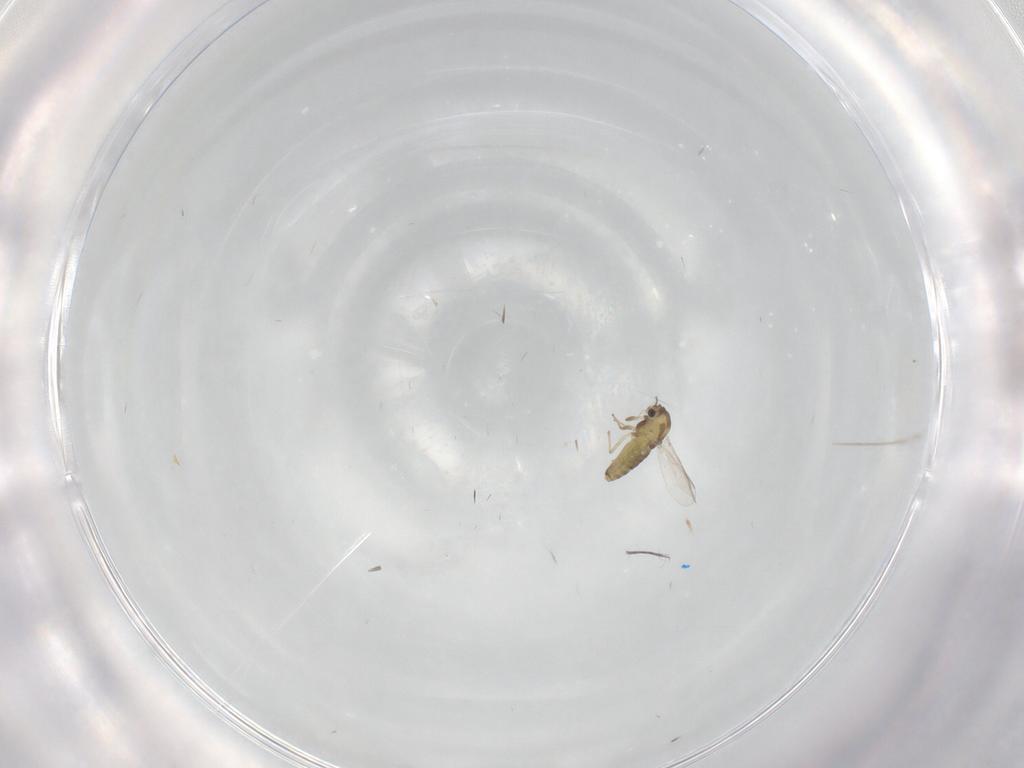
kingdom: Animalia
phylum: Arthropoda
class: Insecta
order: Diptera
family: Chironomidae
